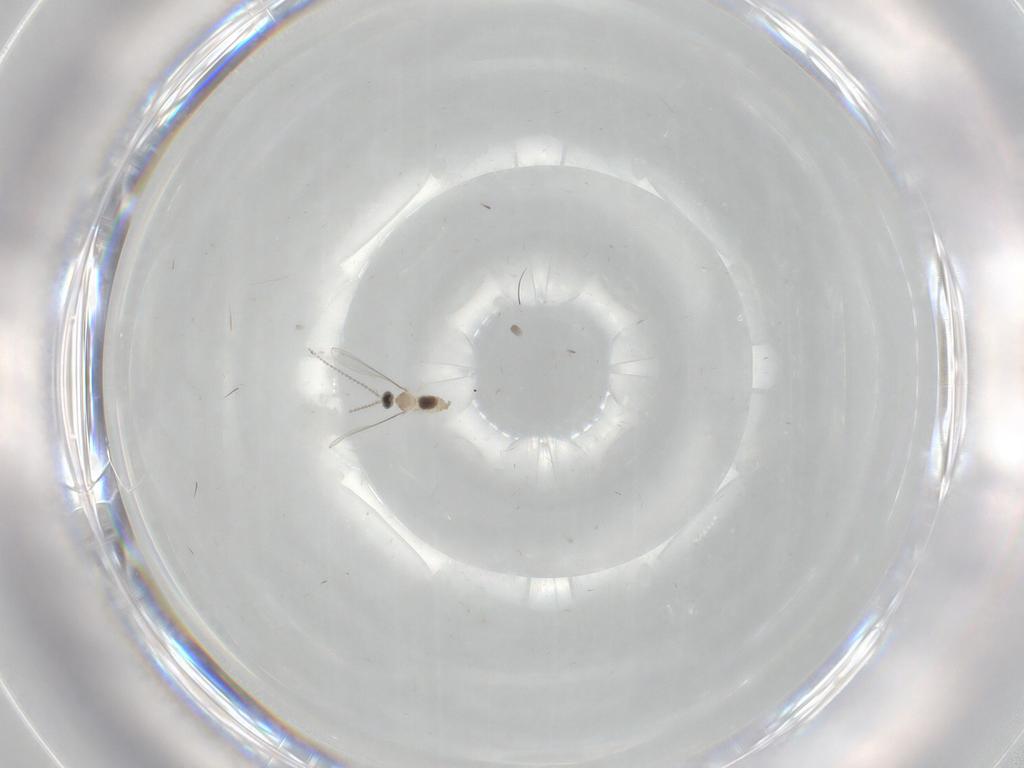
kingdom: Animalia
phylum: Arthropoda
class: Insecta
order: Diptera
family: Cecidomyiidae
